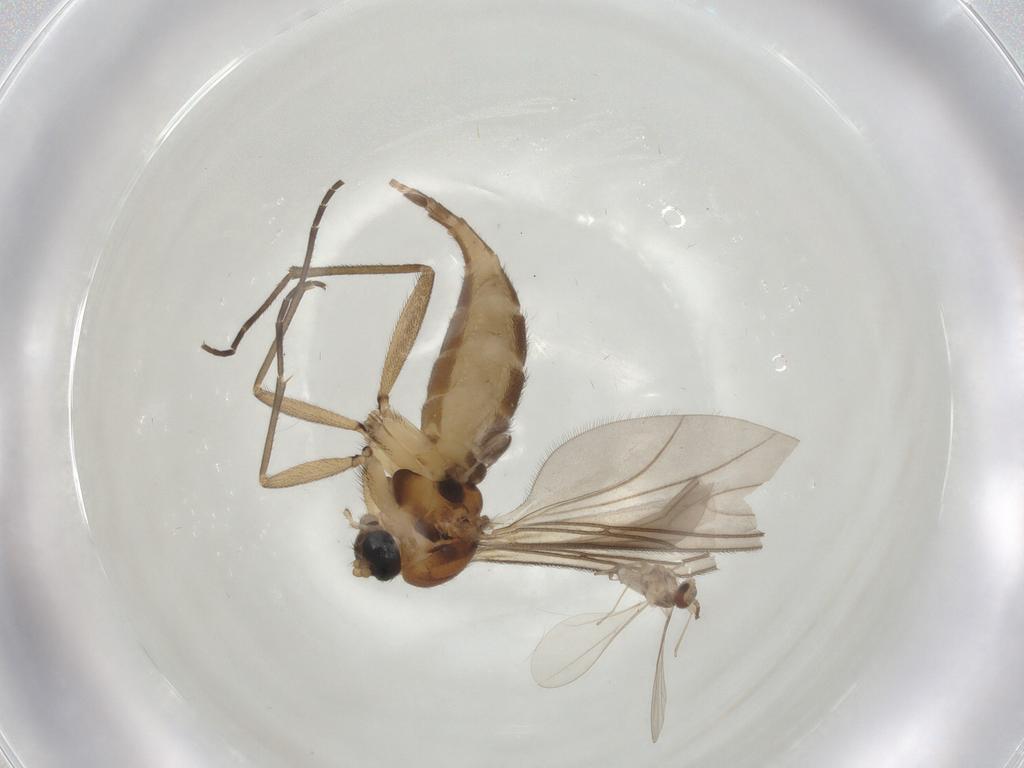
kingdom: Animalia
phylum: Arthropoda
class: Insecta
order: Diptera
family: Sciaridae
